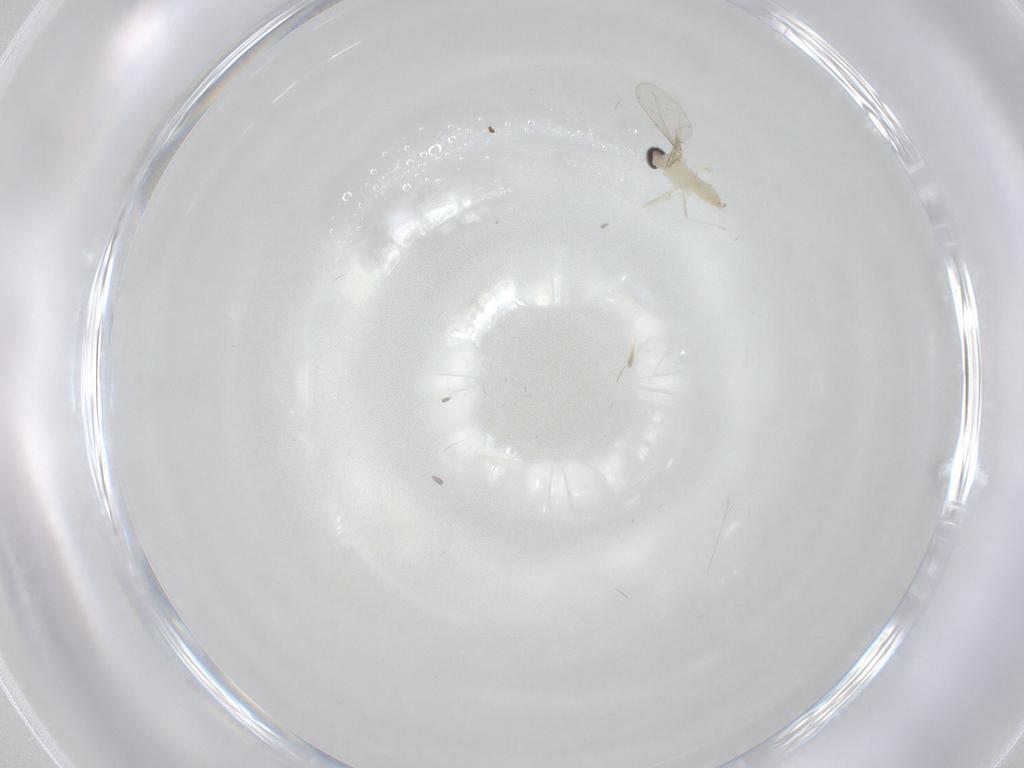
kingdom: Animalia
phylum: Arthropoda
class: Insecta
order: Diptera
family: Cecidomyiidae
